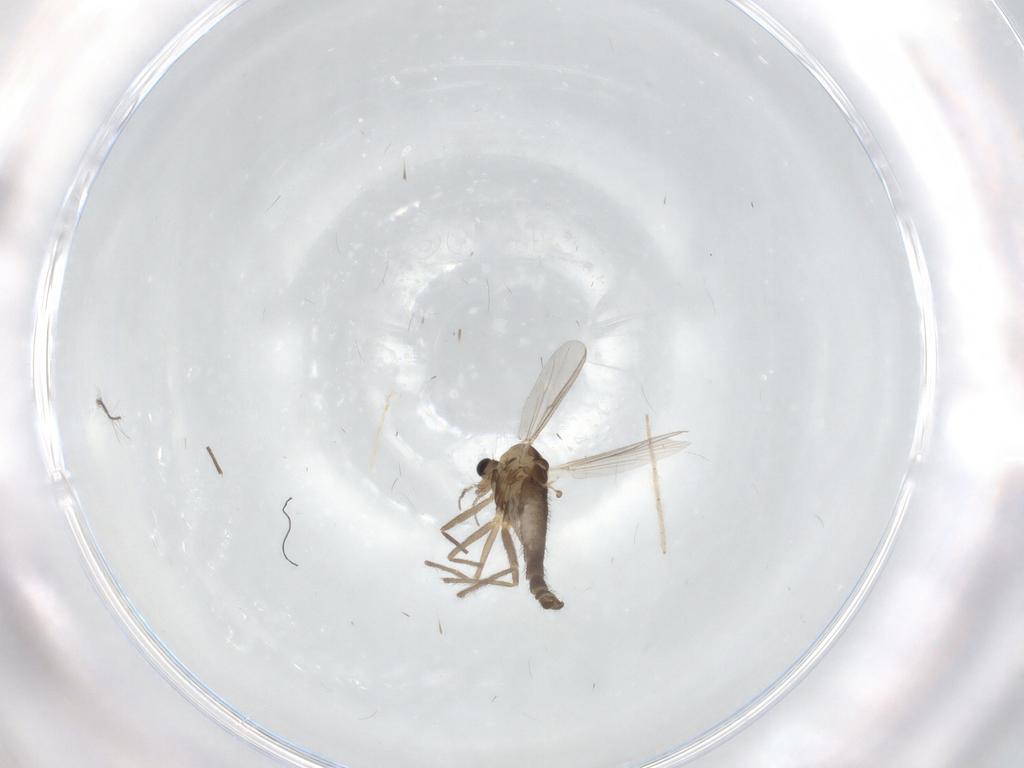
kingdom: Animalia
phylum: Arthropoda
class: Insecta
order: Diptera
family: Chironomidae
